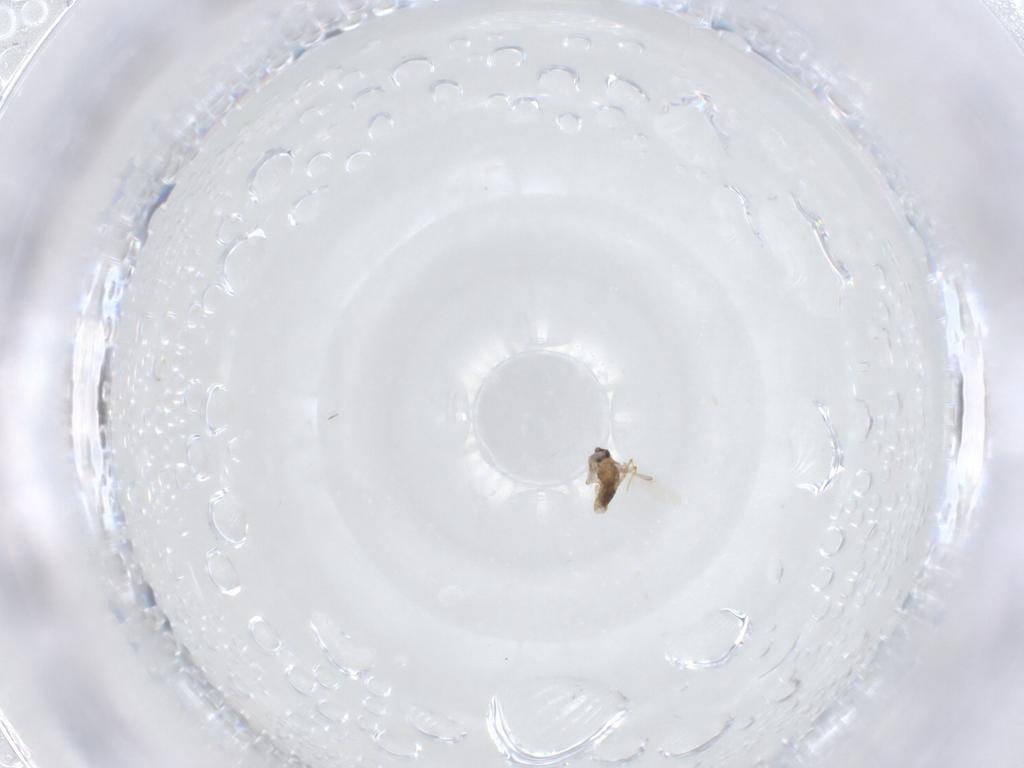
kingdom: Animalia
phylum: Arthropoda
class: Insecta
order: Diptera
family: Chironomidae
